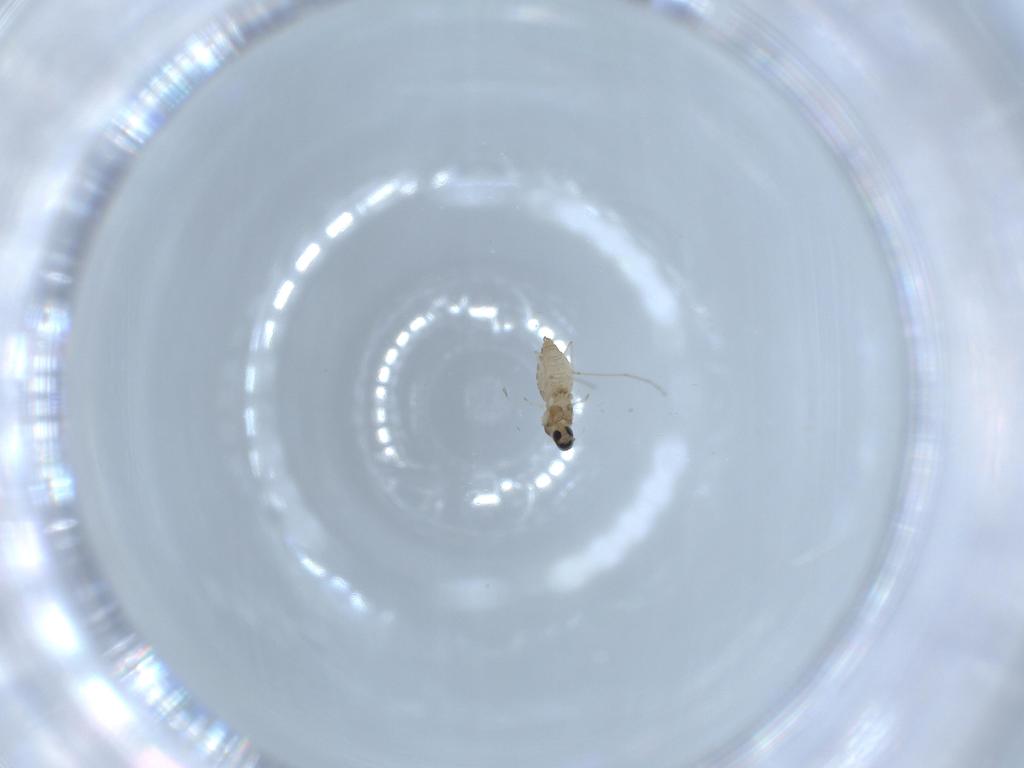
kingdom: Animalia
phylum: Arthropoda
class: Insecta
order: Diptera
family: Cecidomyiidae
